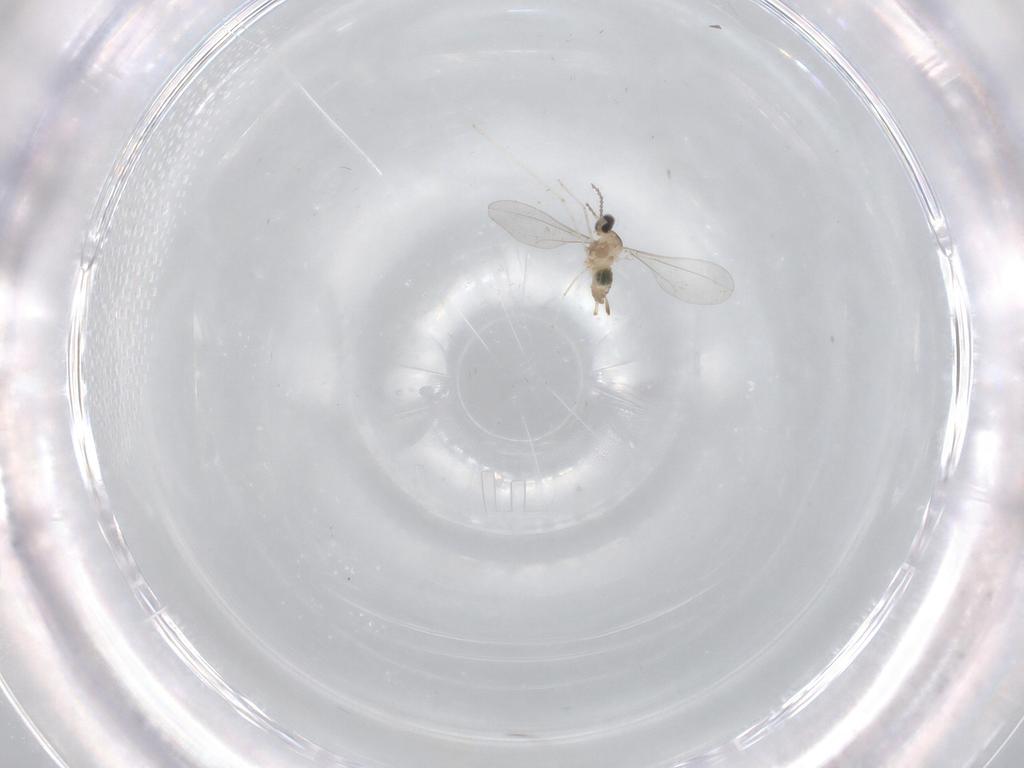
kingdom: Animalia
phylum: Arthropoda
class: Insecta
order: Diptera
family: Cecidomyiidae
